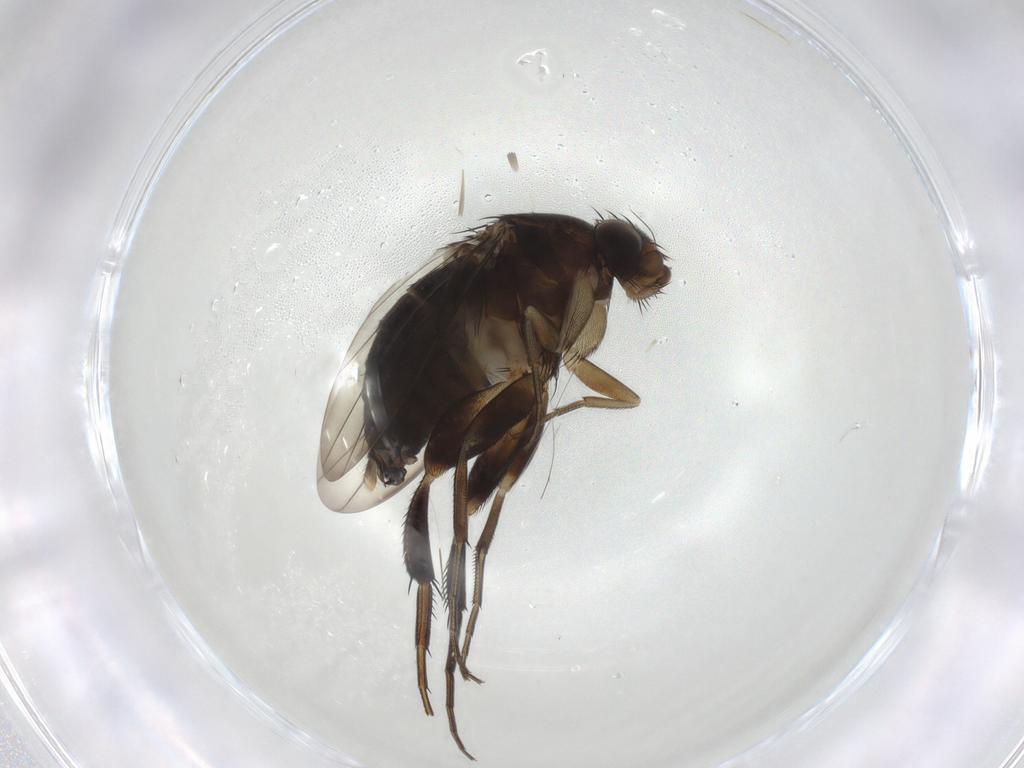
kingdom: Animalia
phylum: Arthropoda
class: Insecta
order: Diptera
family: Phoridae
